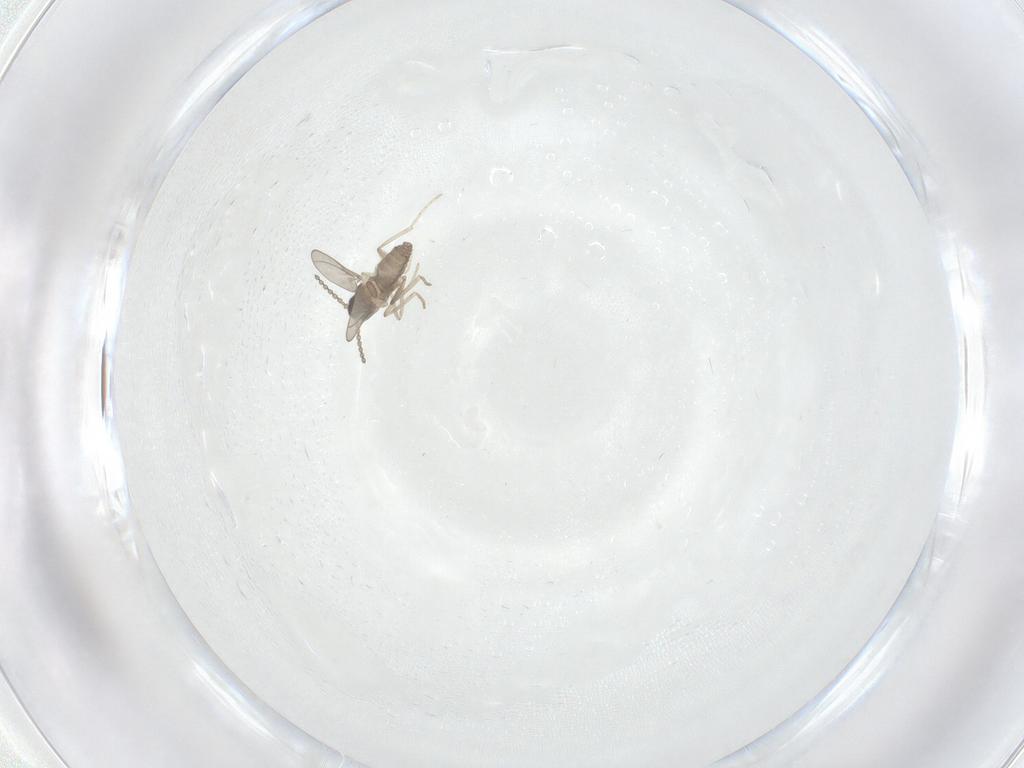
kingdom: Animalia
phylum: Arthropoda
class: Insecta
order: Diptera
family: Cecidomyiidae
